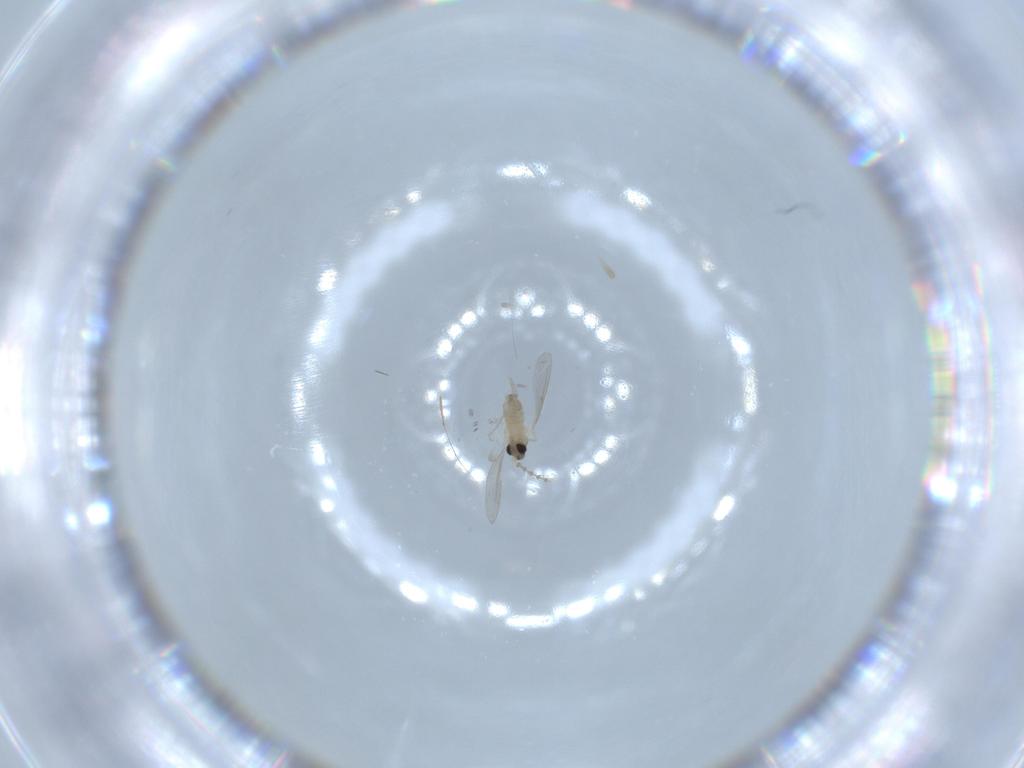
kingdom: Animalia
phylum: Arthropoda
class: Insecta
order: Diptera
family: Cecidomyiidae
